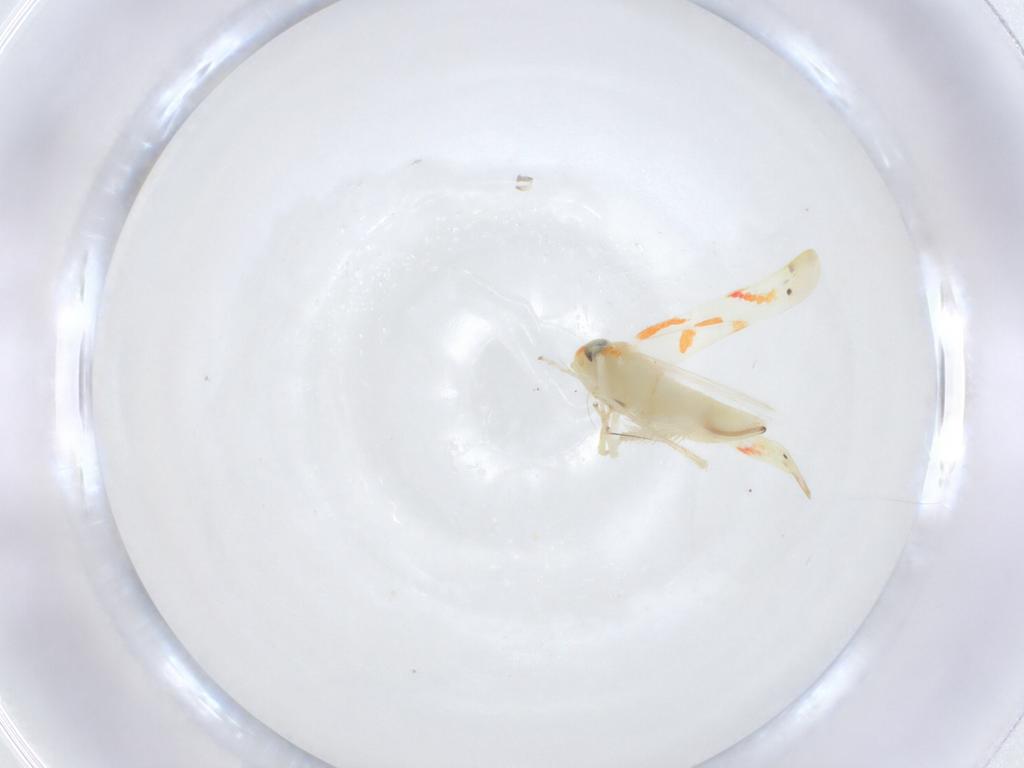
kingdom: Animalia
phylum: Arthropoda
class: Insecta
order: Hemiptera
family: Cicadellidae
